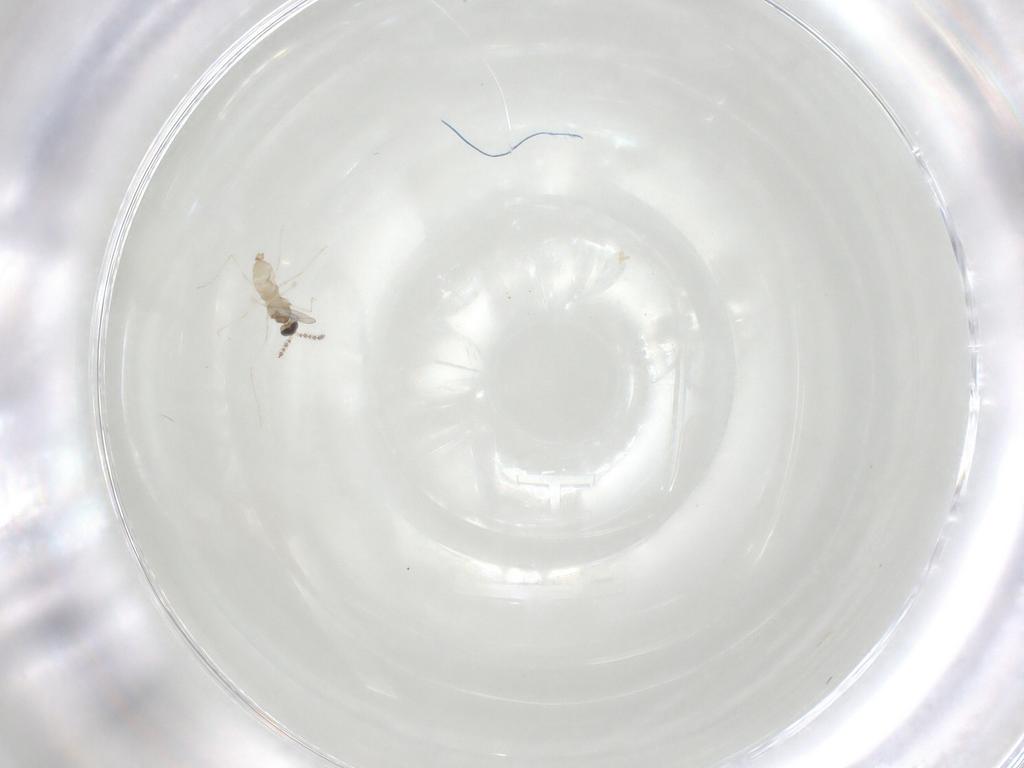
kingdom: Animalia
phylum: Arthropoda
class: Insecta
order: Diptera
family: Cecidomyiidae
